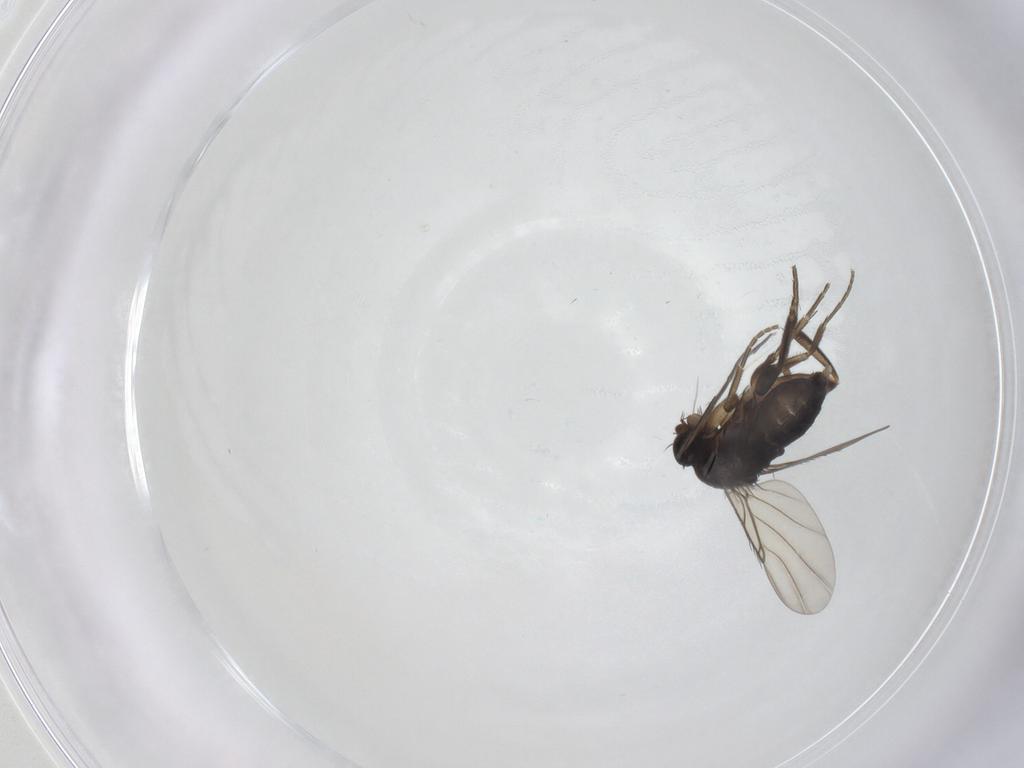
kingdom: Animalia
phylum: Arthropoda
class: Insecta
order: Diptera
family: Phoridae
